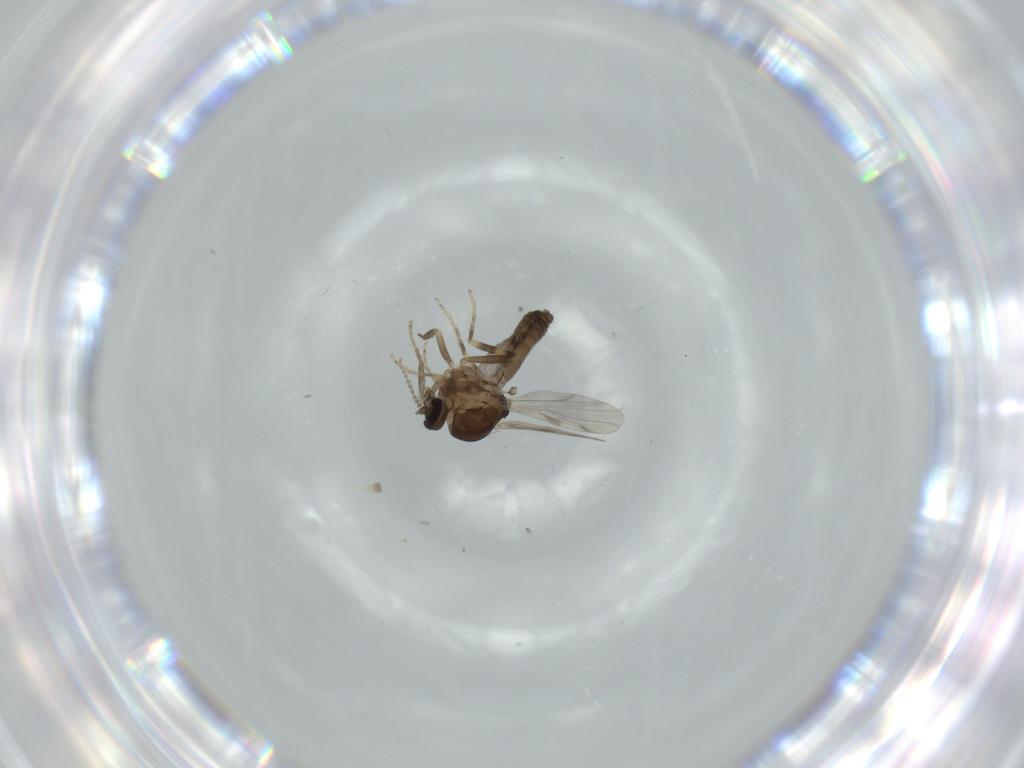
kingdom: Animalia
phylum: Arthropoda
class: Insecta
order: Diptera
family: Ceratopogonidae
